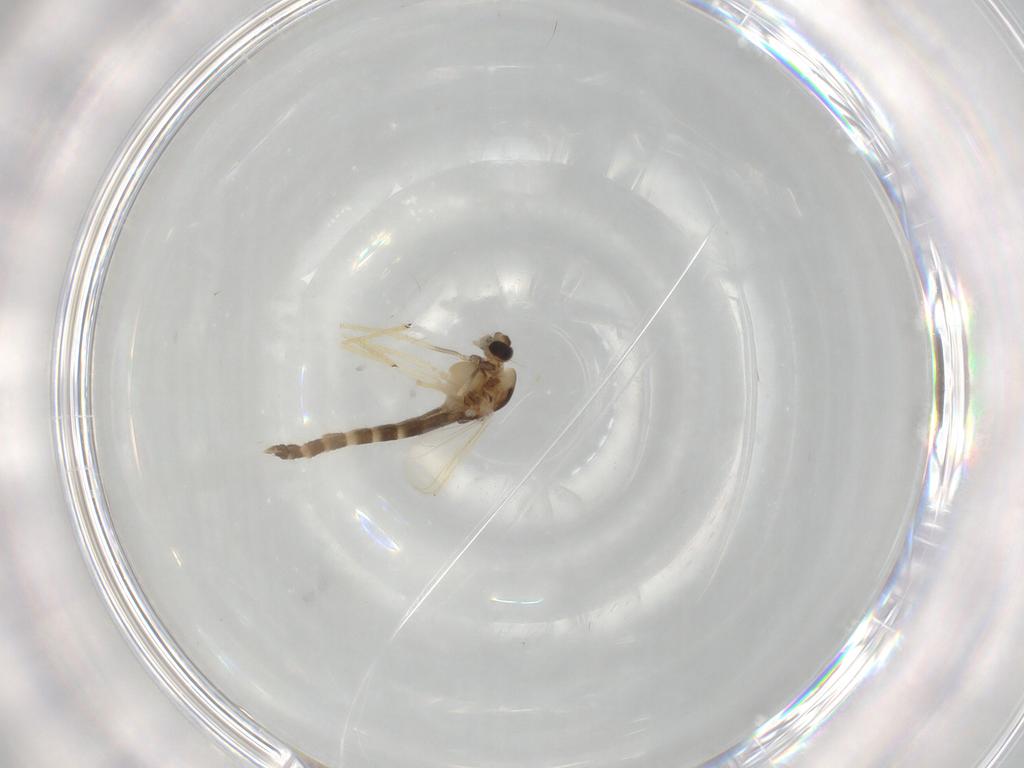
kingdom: Animalia
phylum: Arthropoda
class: Insecta
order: Diptera
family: Chironomidae
